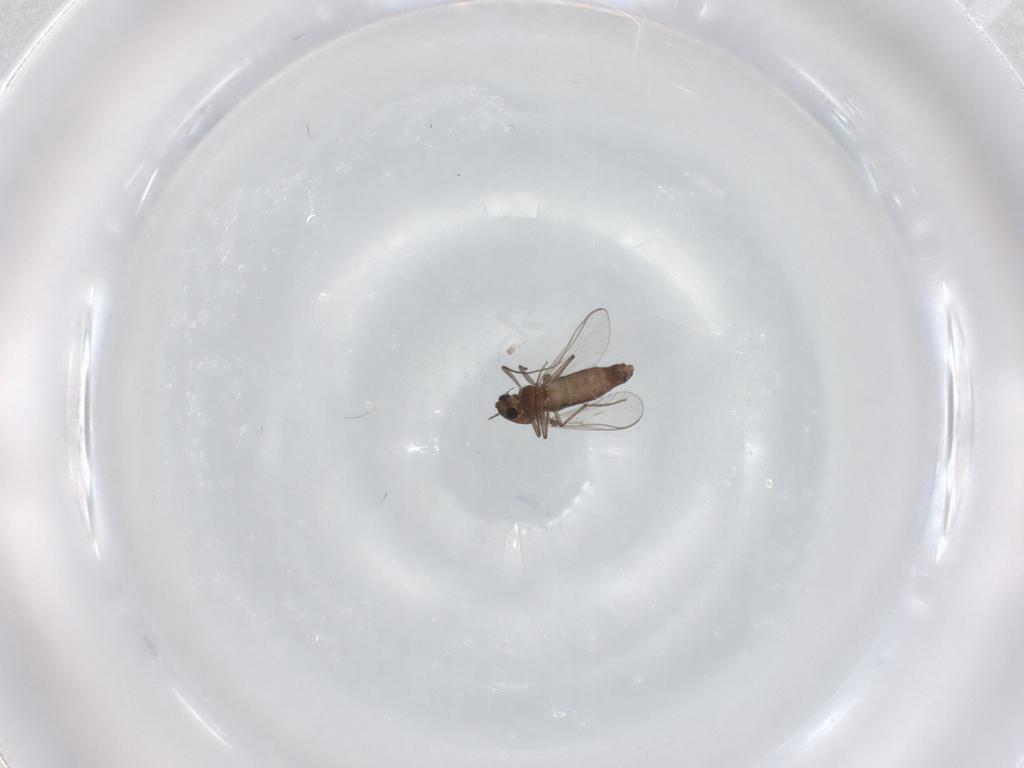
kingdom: Animalia
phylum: Arthropoda
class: Insecta
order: Diptera
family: Chironomidae
